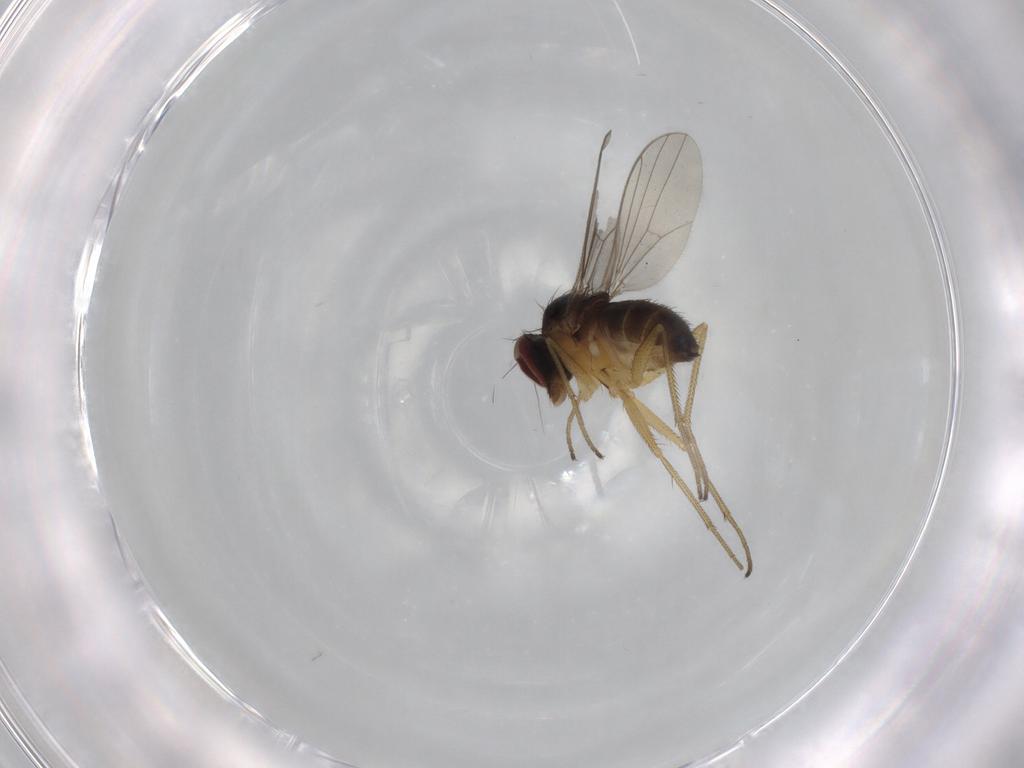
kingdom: Animalia
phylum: Arthropoda
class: Insecta
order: Diptera
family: Dolichopodidae
